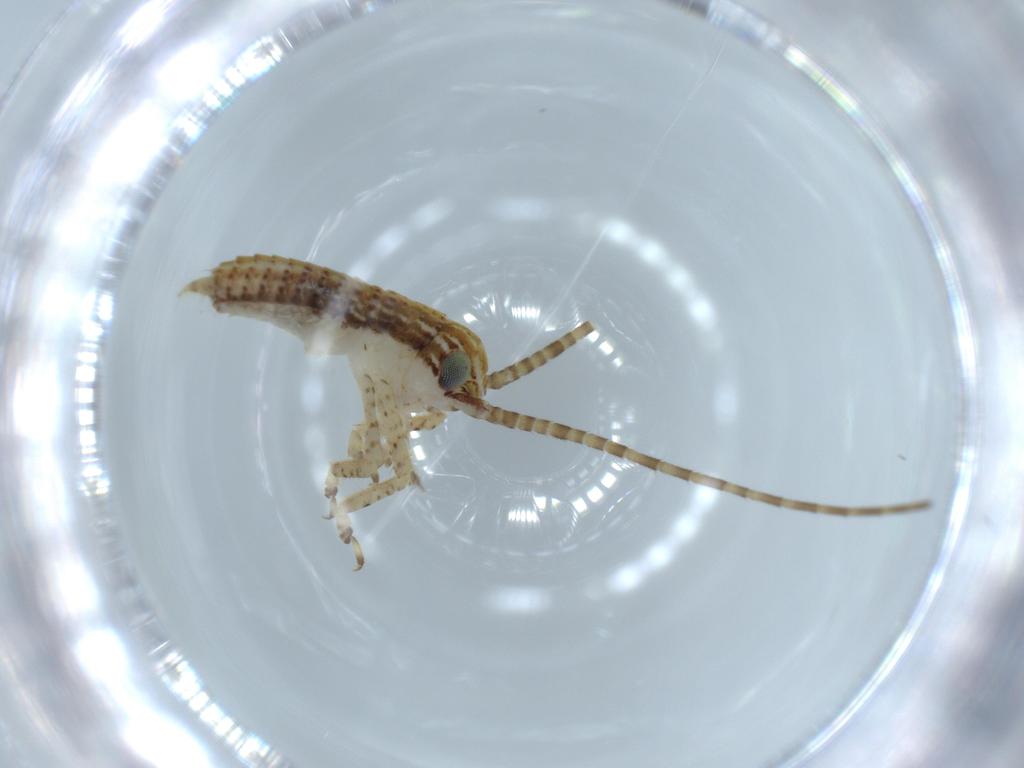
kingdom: Animalia
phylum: Arthropoda
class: Insecta
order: Orthoptera
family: Gryllidae
